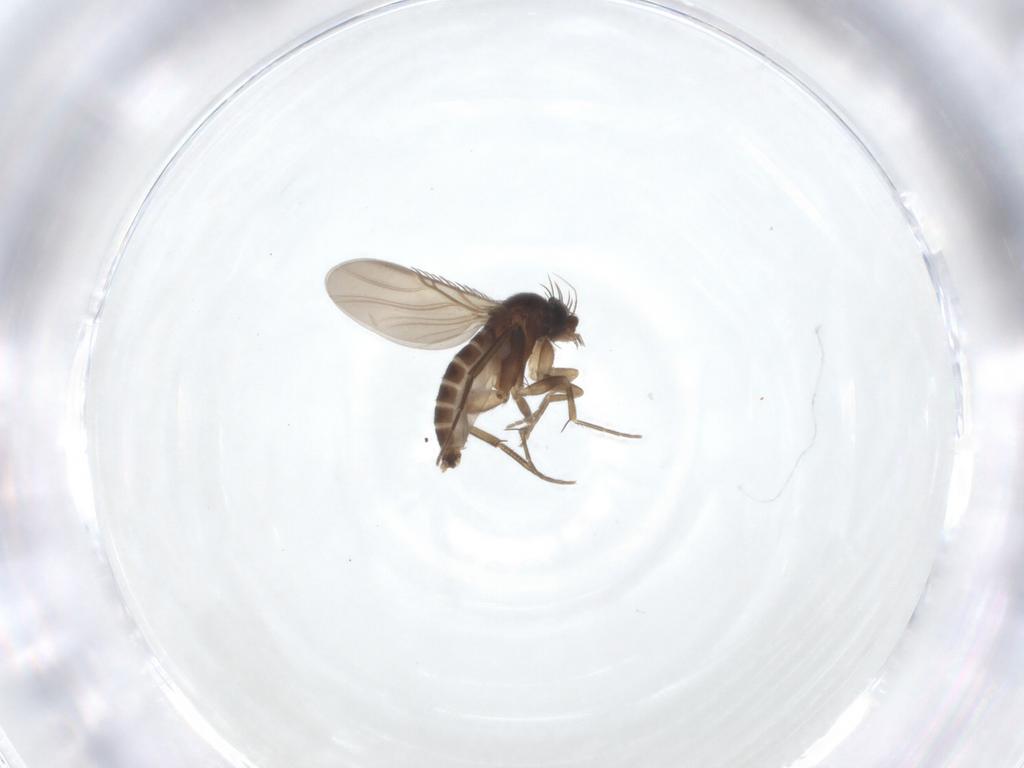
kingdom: Animalia
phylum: Arthropoda
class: Insecta
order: Diptera
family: Phoridae
